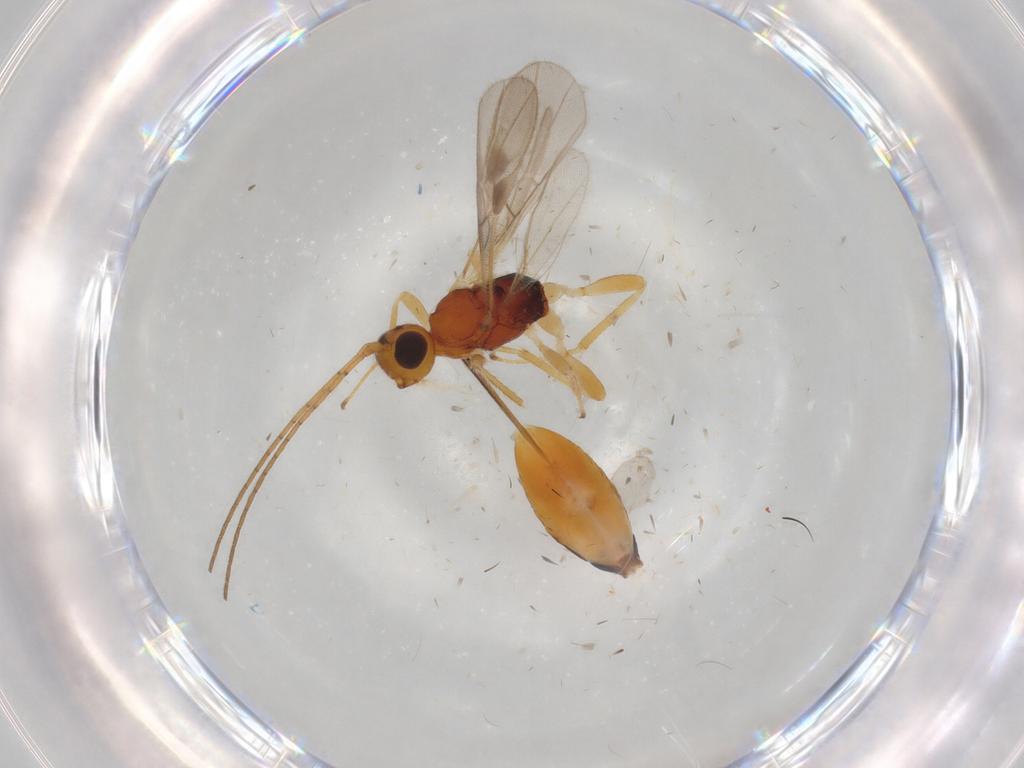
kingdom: Animalia
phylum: Arthropoda
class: Insecta
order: Hymenoptera
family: Braconidae
